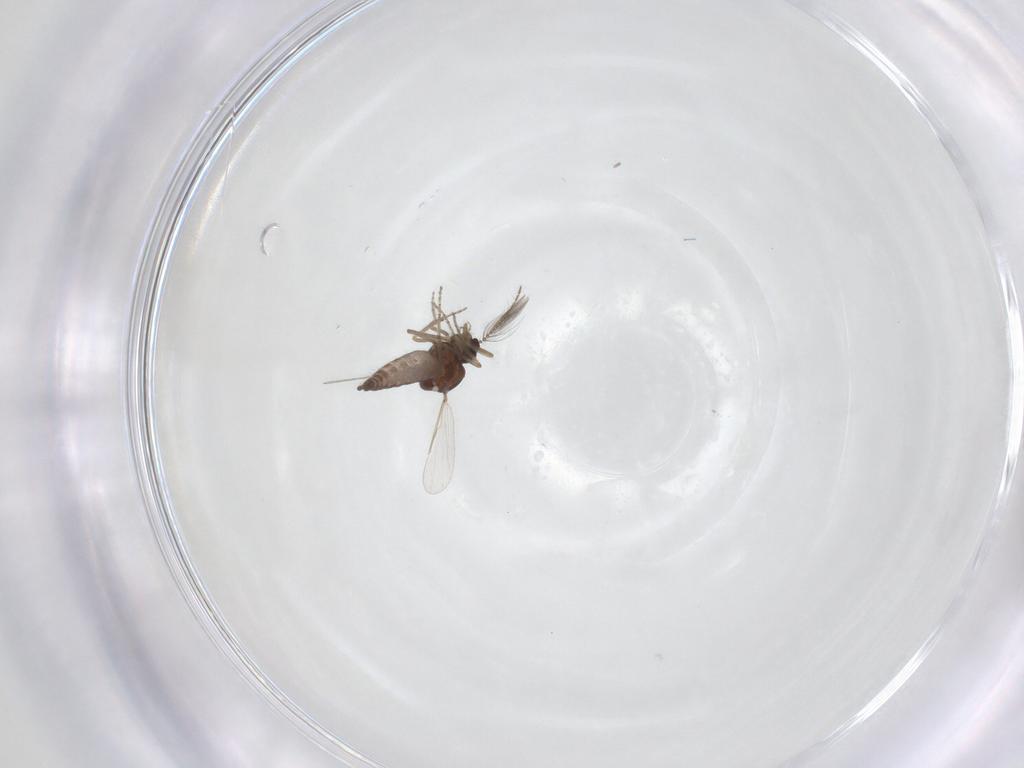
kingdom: Animalia
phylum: Arthropoda
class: Insecta
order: Diptera
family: Ceratopogonidae
